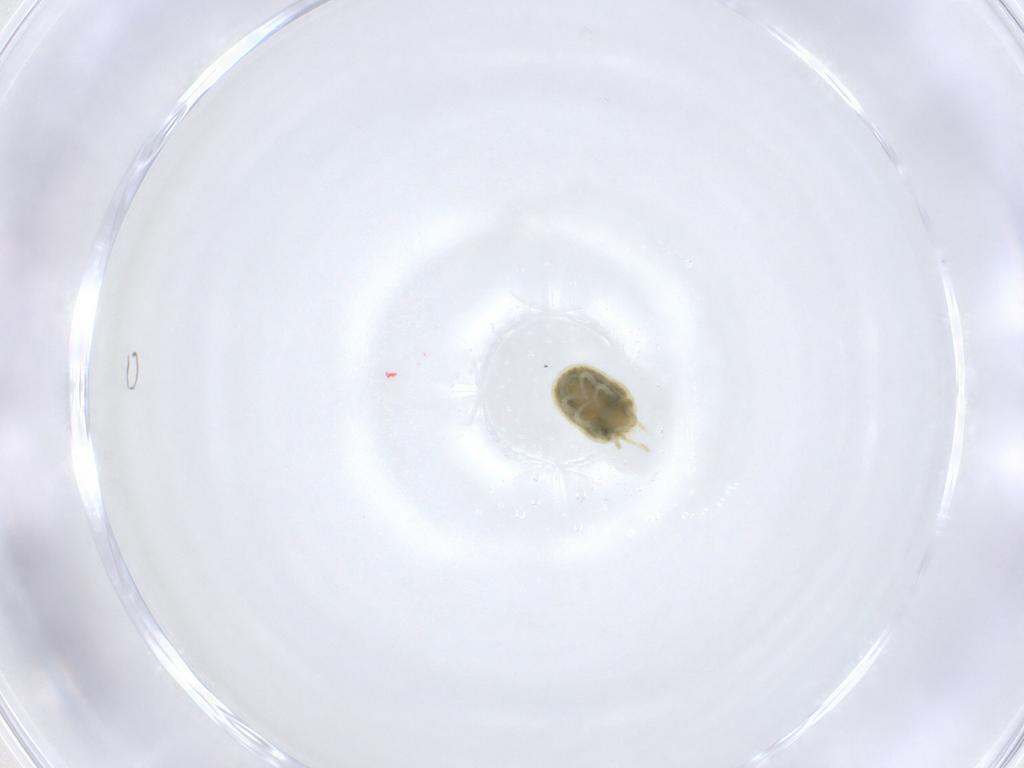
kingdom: Animalia
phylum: Arthropoda
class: Arachnida
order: Trombidiformes
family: Tetranychidae
